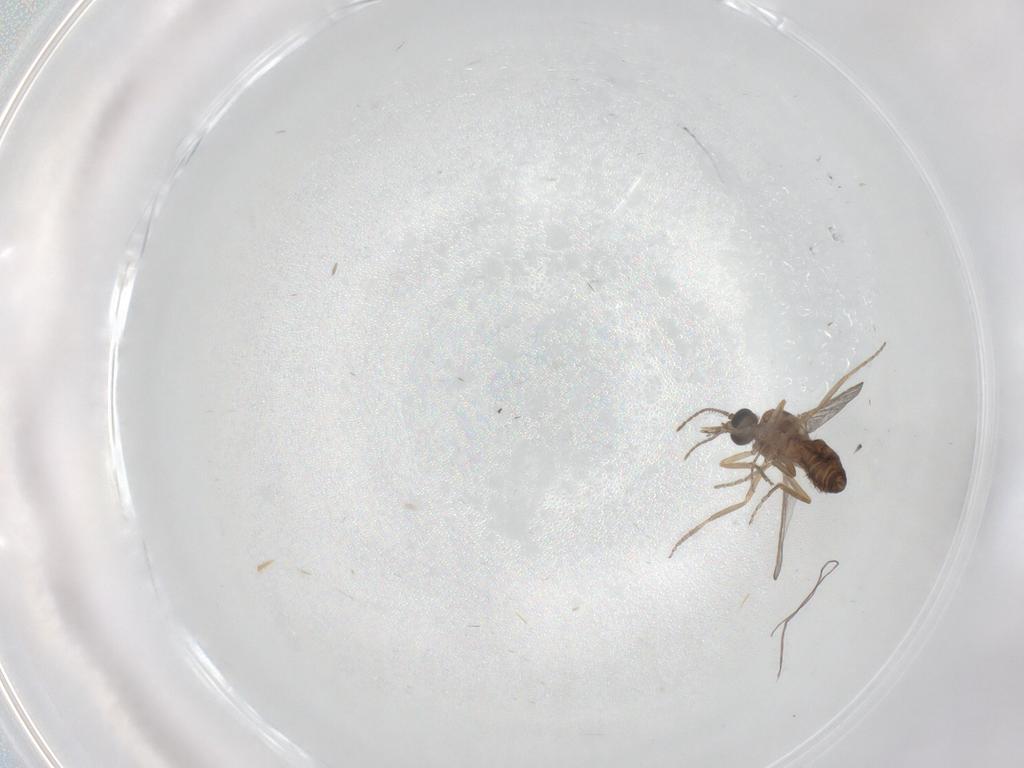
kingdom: Animalia
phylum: Arthropoda
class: Insecta
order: Diptera
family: Ceratopogonidae
